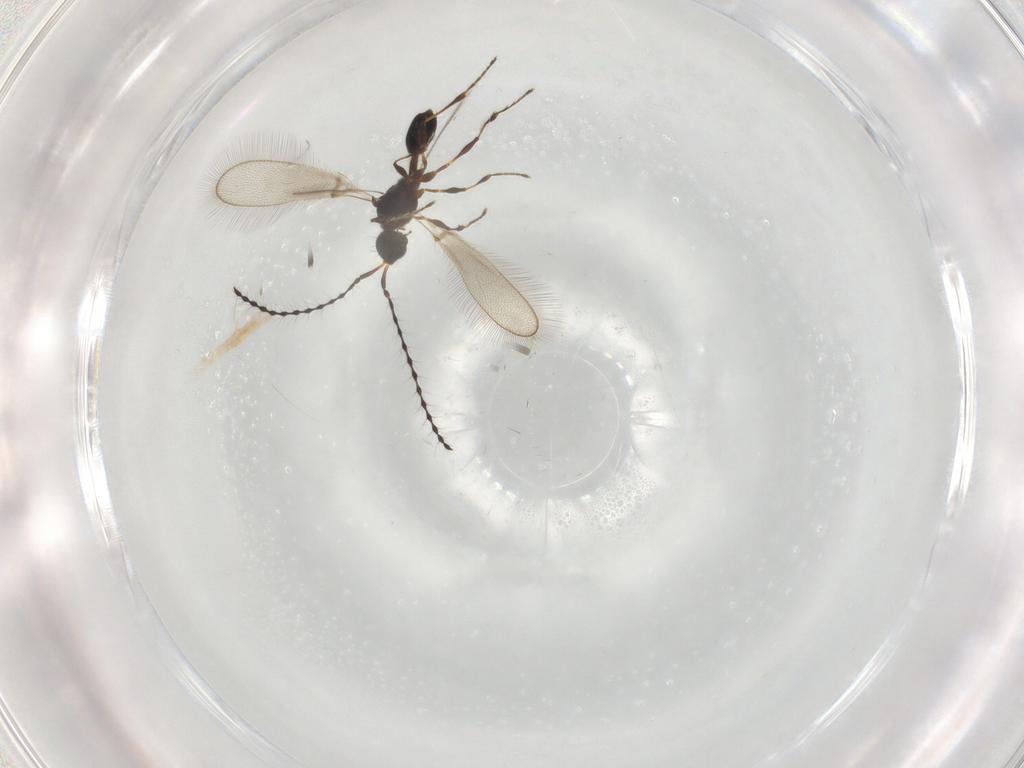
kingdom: Animalia
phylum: Arthropoda
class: Insecta
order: Hymenoptera
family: Diapriidae
